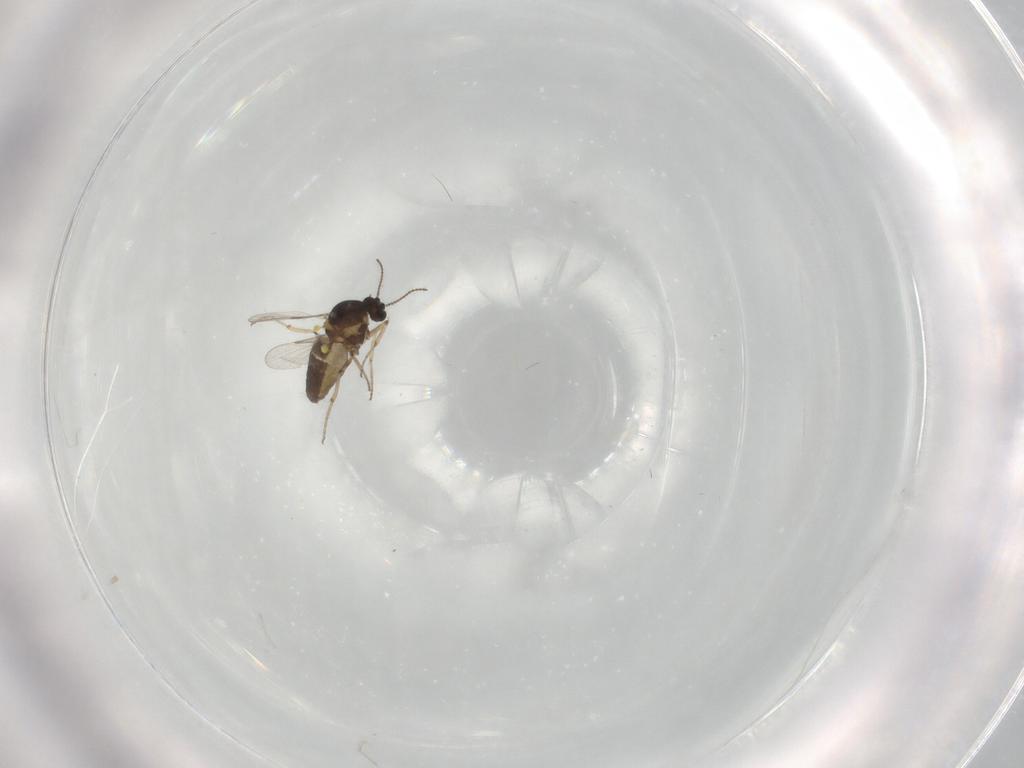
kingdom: Animalia
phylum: Arthropoda
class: Insecta
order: Diptera
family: Ceratopogonidae
